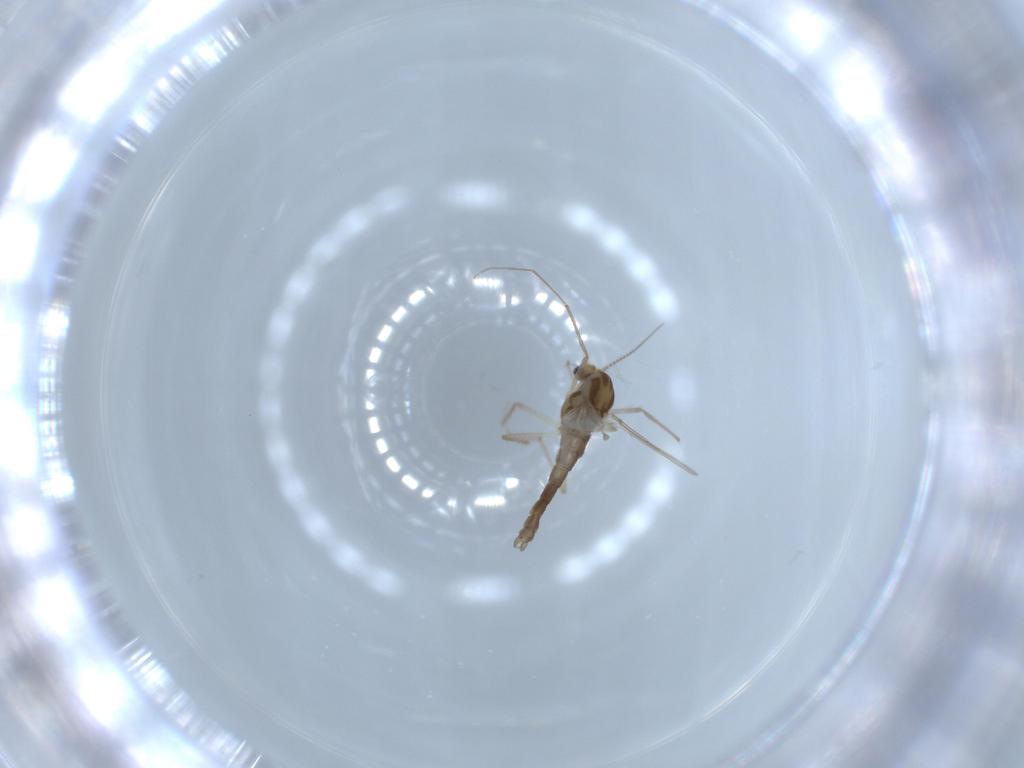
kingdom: Animalia
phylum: Arthropoda
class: Insecta
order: Diptera
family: Chironomidae
